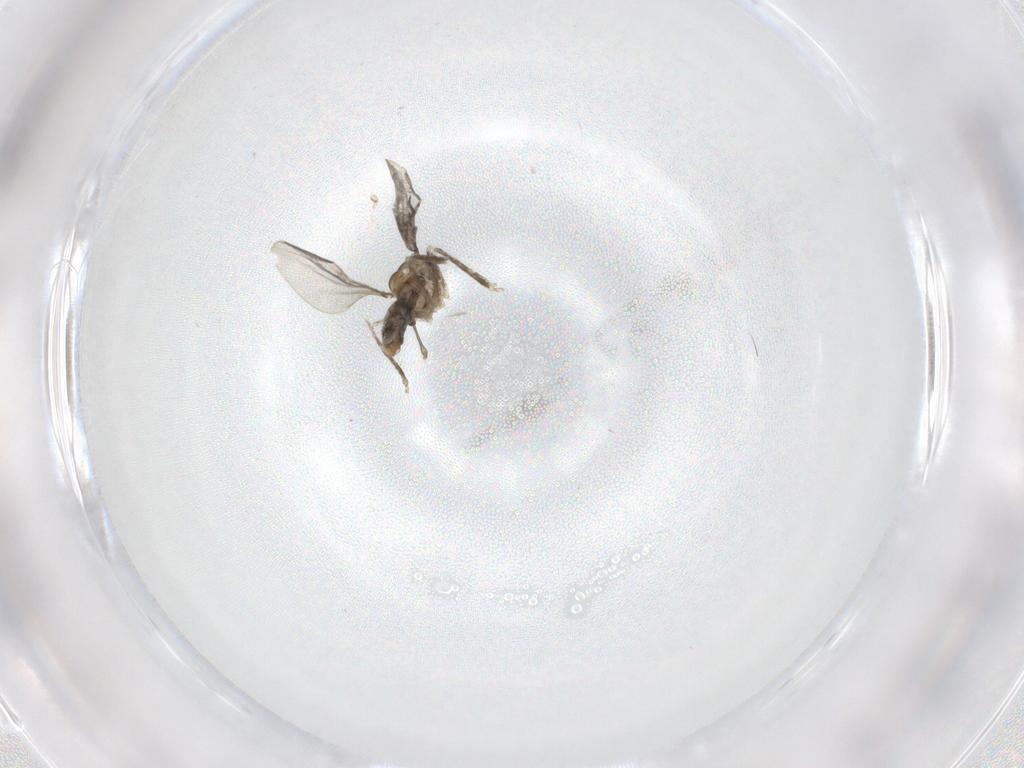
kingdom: Animalia
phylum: Arthropoda
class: Insecta
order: Diptera
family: Cecidomyiidae
